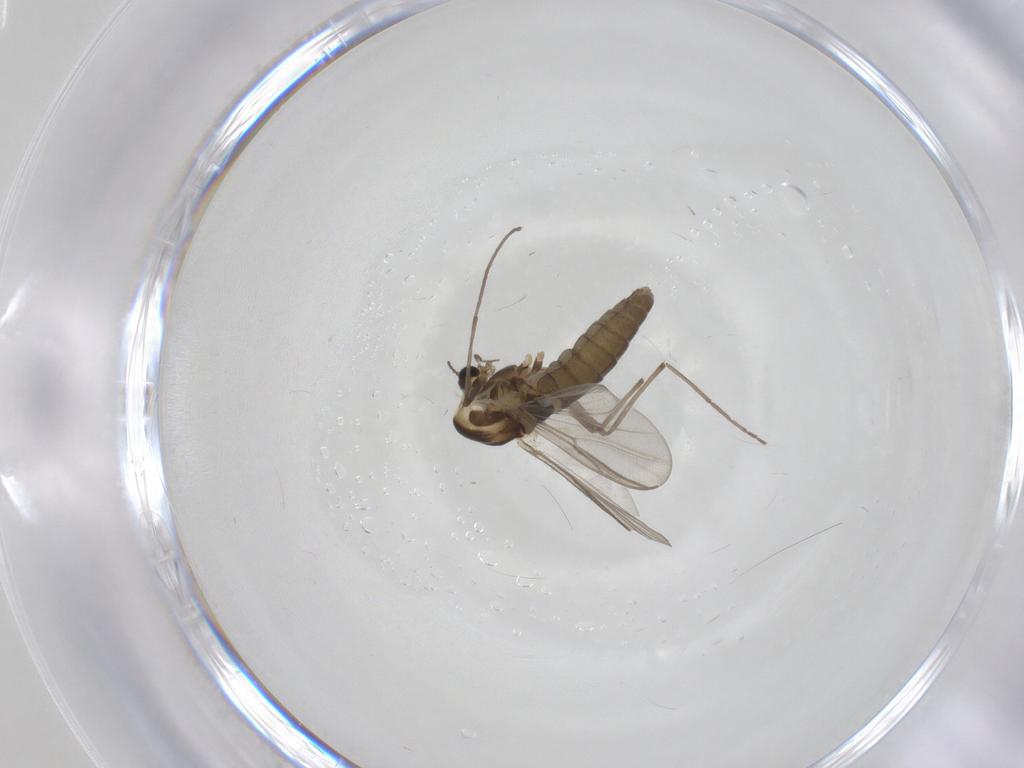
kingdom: Animalia
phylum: Arthropoda
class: Insecta
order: Diptera
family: Chironomidae
